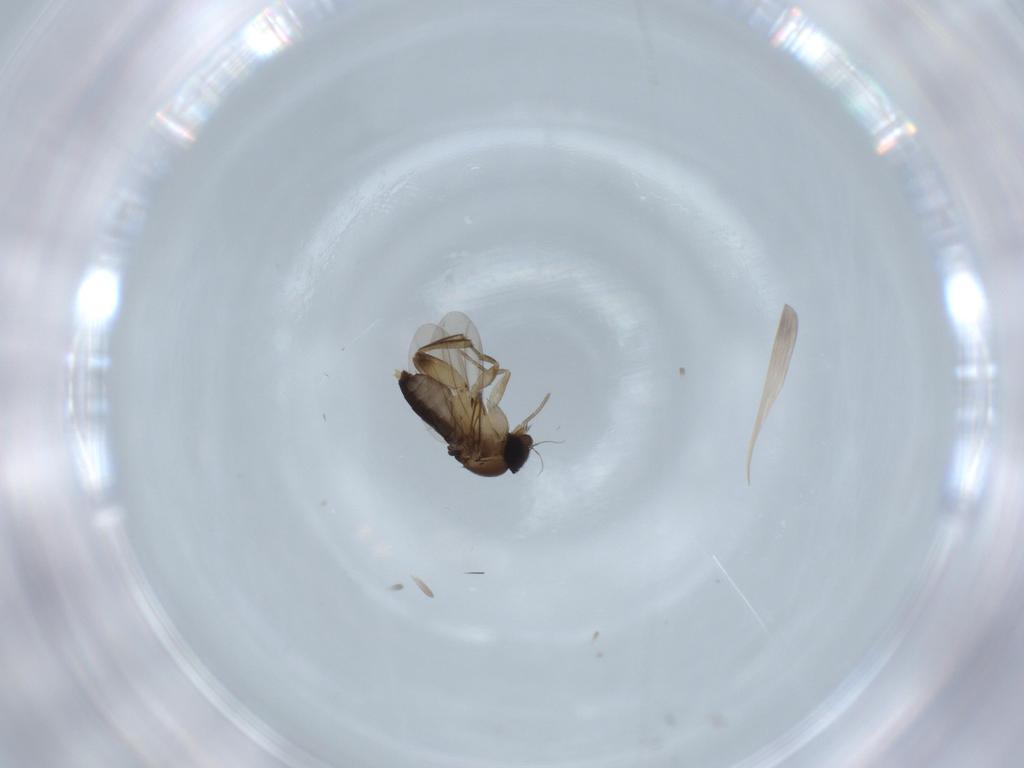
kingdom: Animalia
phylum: Arthropoda
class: Insecta
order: Diptera
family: Phoridae
